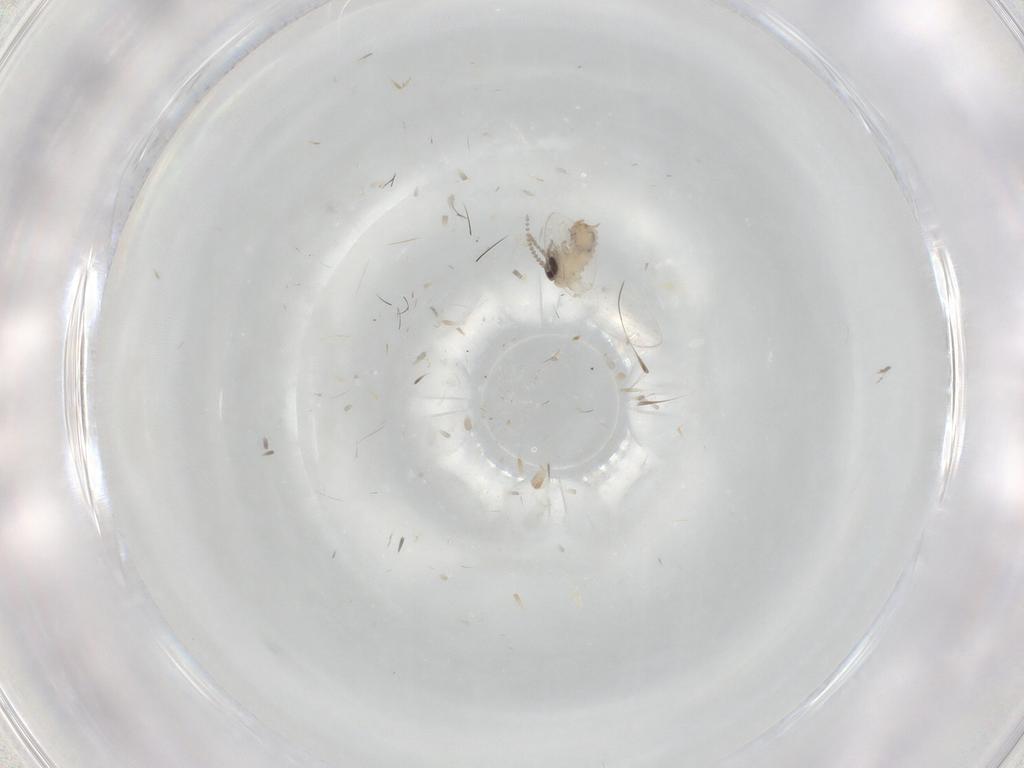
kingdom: Animalia
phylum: Arthropoda
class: Insecta
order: Diptera
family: Psychodidae
